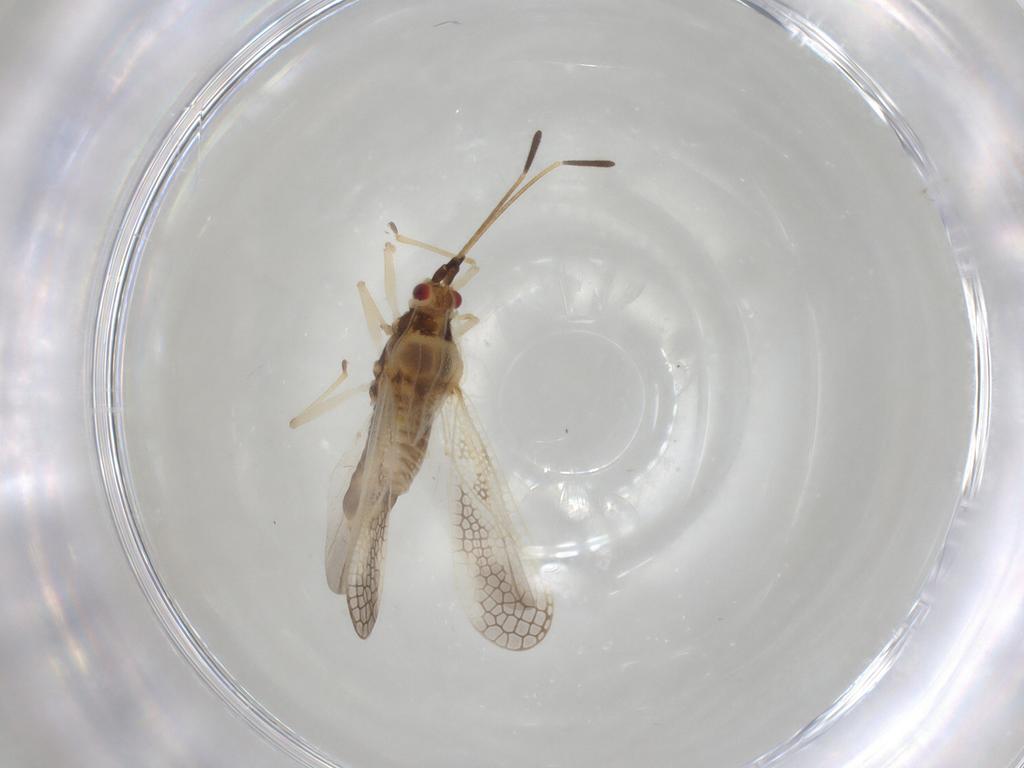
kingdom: Animalia
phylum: Arthropoda
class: Insecta
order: Hemiptera
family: Tingidae
